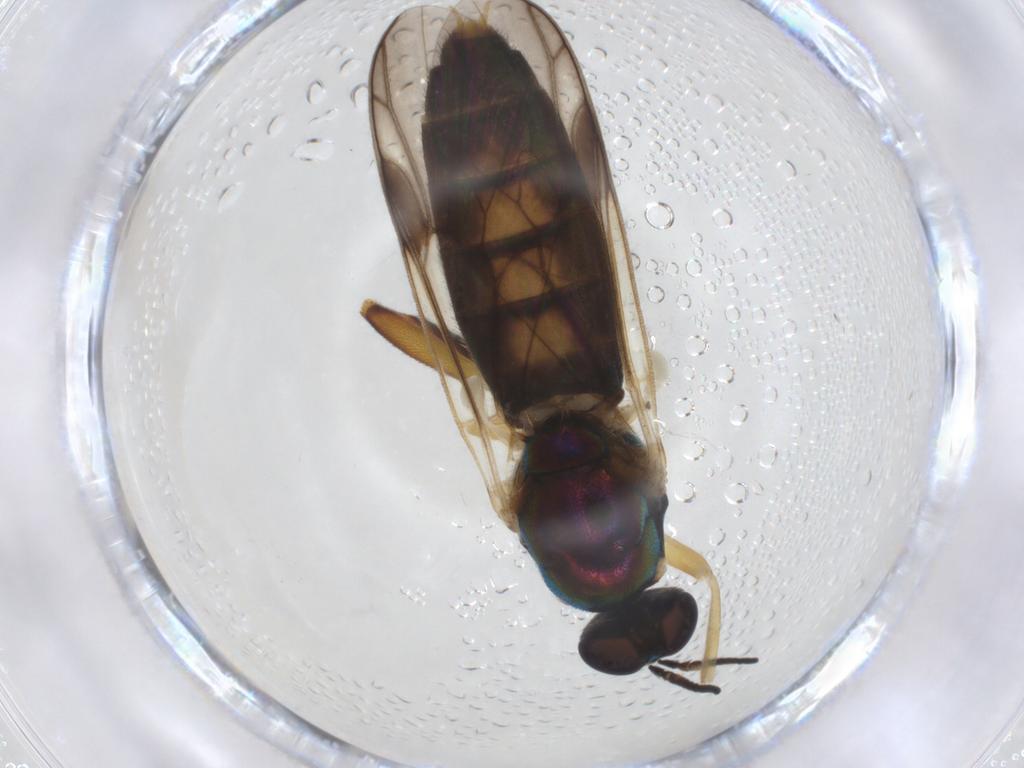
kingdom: Animalia
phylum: Arthropoda
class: Insecta
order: Diptera
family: Stratiomyidae
